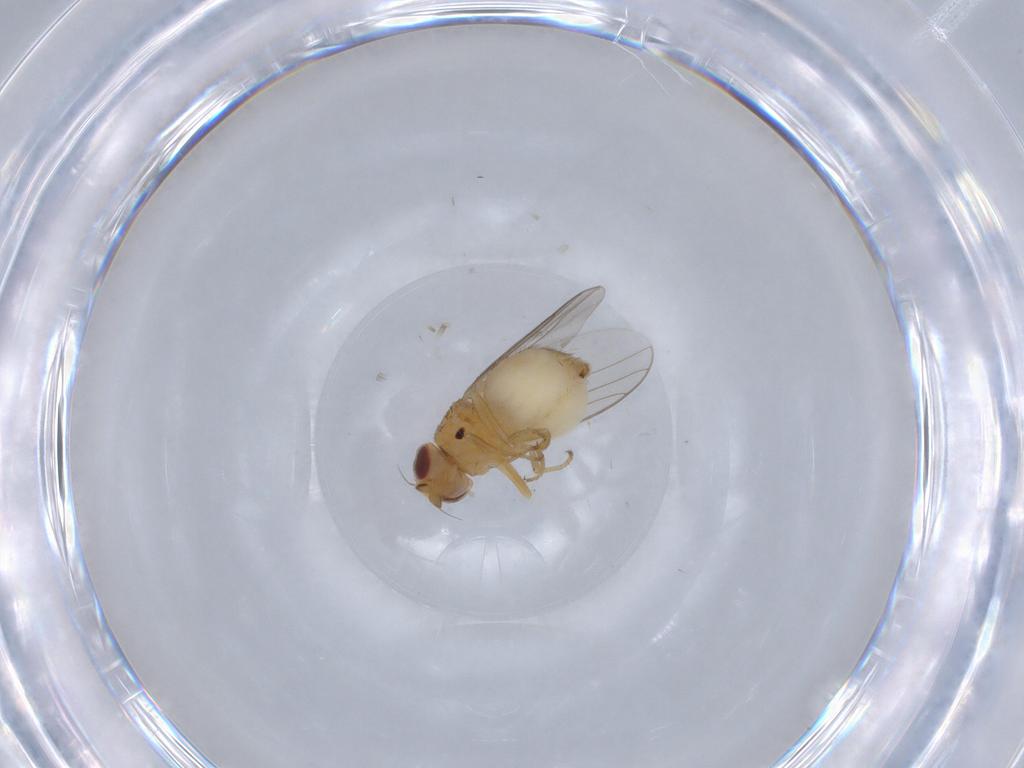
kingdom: Animalia
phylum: Arthropoda
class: Insecta
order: Diptera
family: Chloropidae
